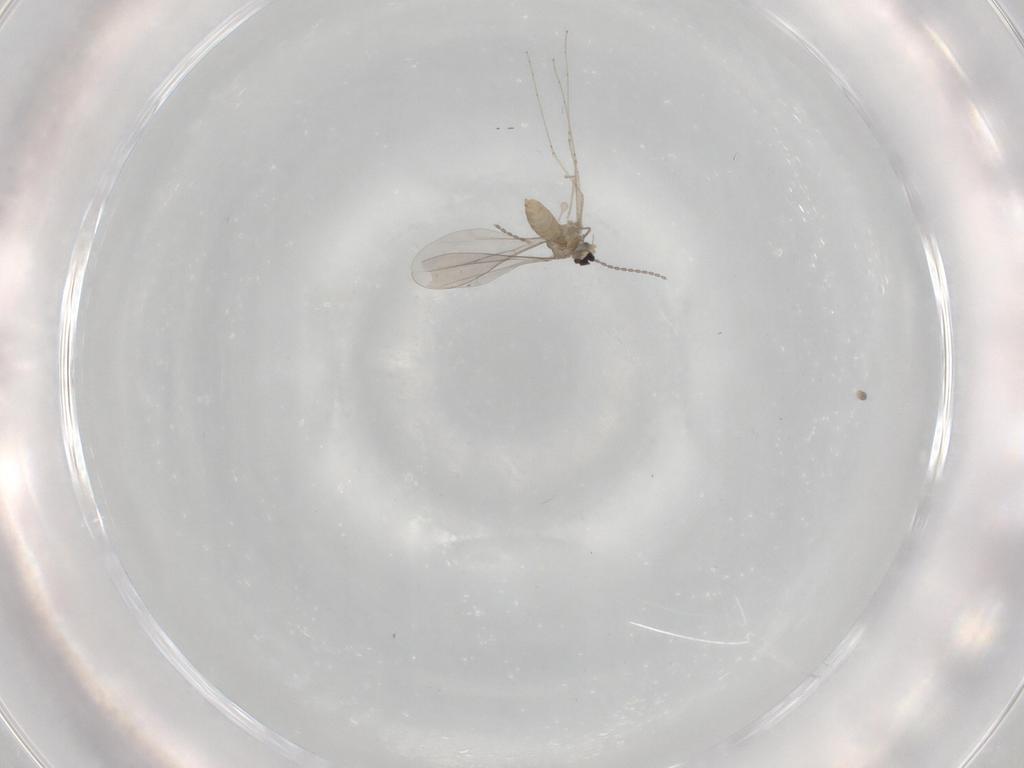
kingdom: Animalia
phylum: Arthropoda
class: Insecta
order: Diptera
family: Cecidomyiidae
